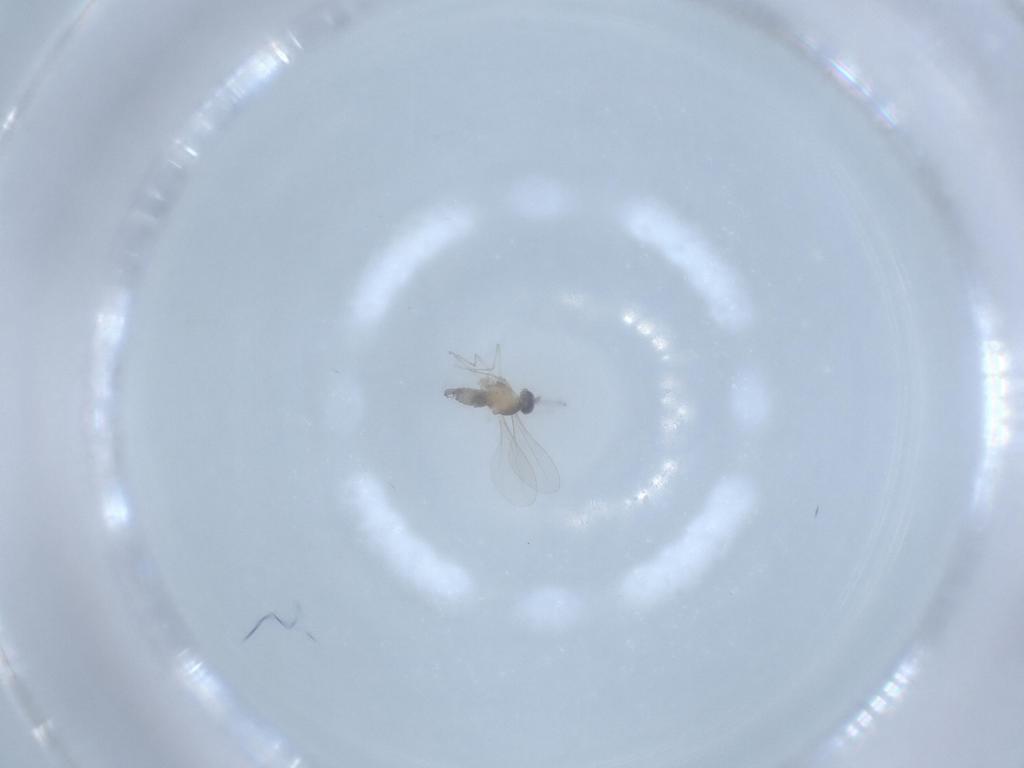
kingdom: Animalia
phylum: Arthropoda
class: Insecta
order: Diptera
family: Cecidomyiidae
